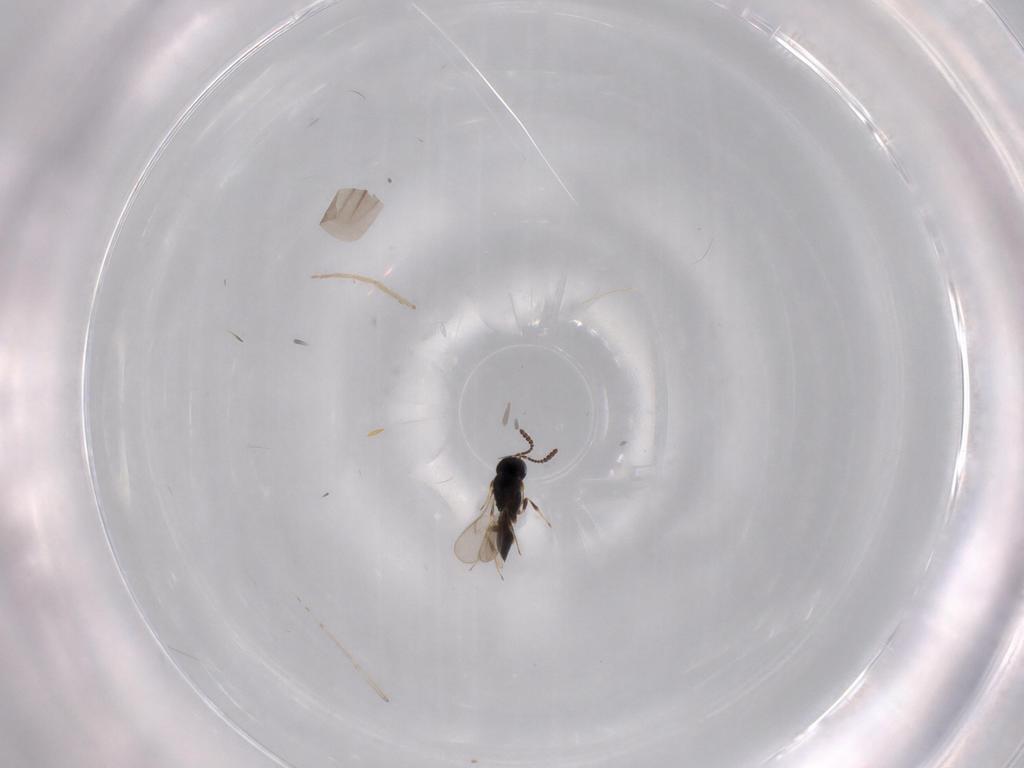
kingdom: Animalia
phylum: Arthropoda
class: Insecta
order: Hymenoptera
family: Scelionidae
